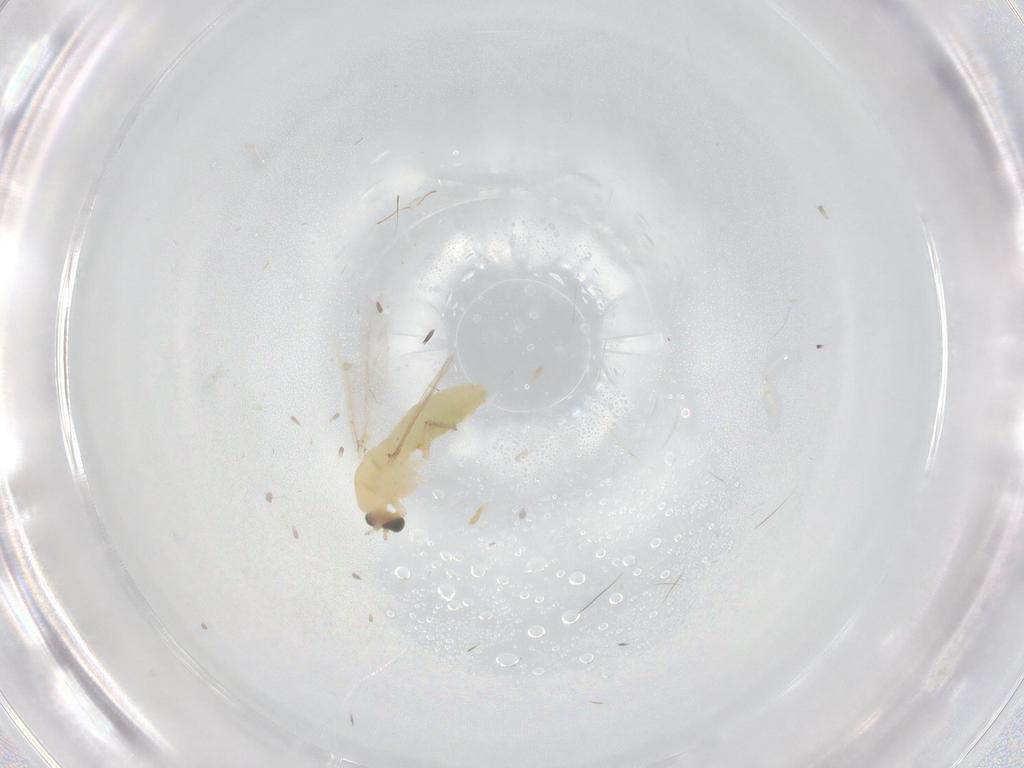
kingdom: Animalia
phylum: Arthropoda
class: Insecta
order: Diptera
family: Chironomidae
